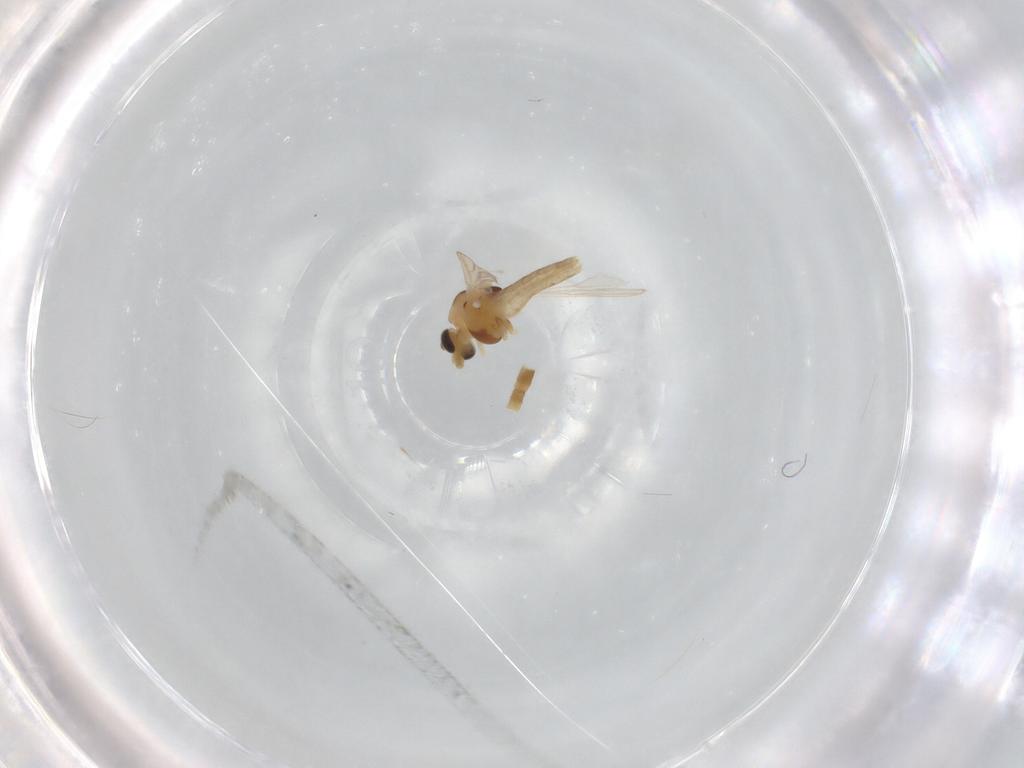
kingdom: Animalia
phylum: Arthropoda
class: Insecta
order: Diptera
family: Chironomidae
